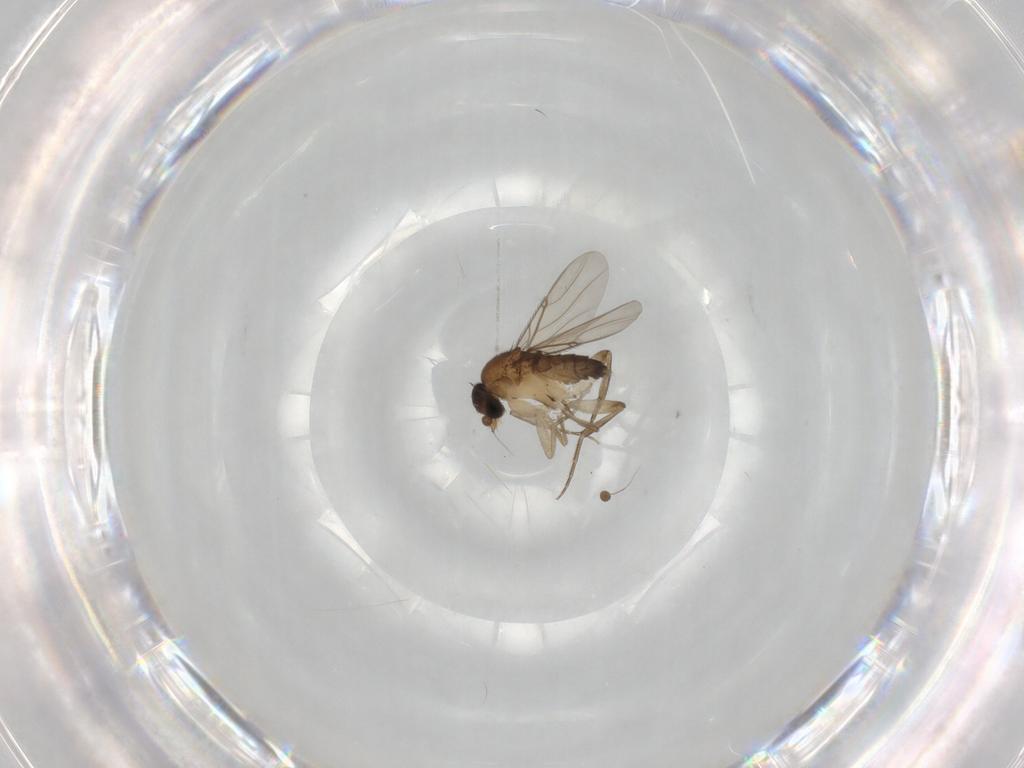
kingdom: Animalia
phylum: Arthropoda
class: Insecta
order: Diptera
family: Phoridae
